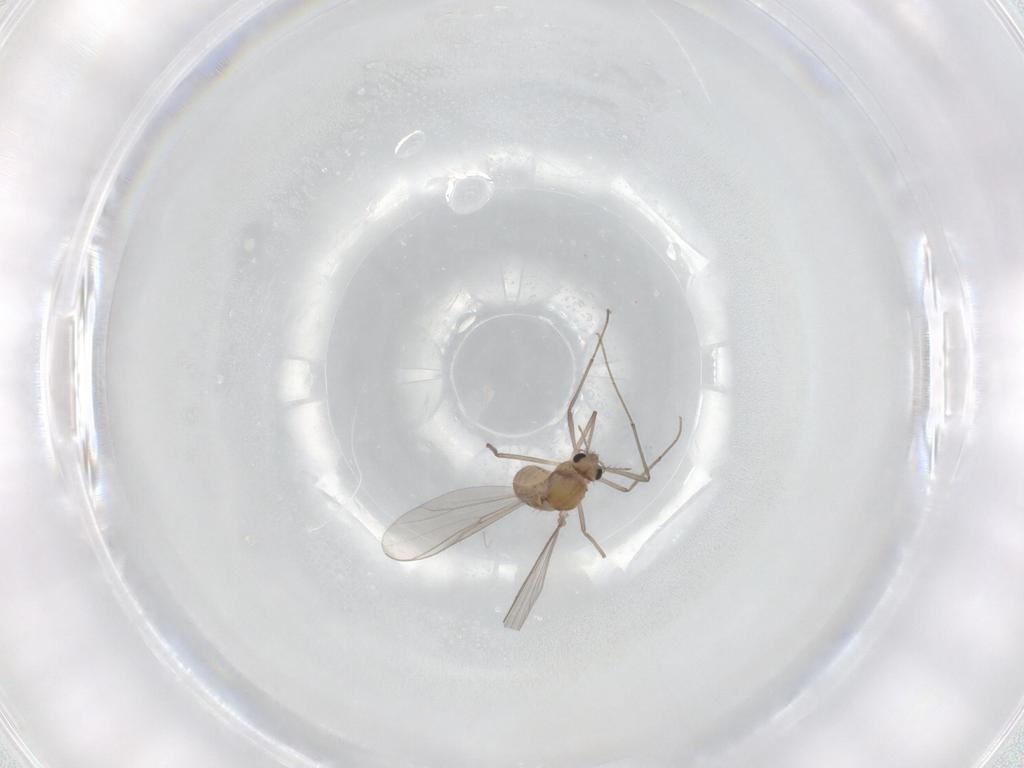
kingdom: Animalia
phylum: Arthropoda
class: Insecta
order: Diptera
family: Chironomidae
